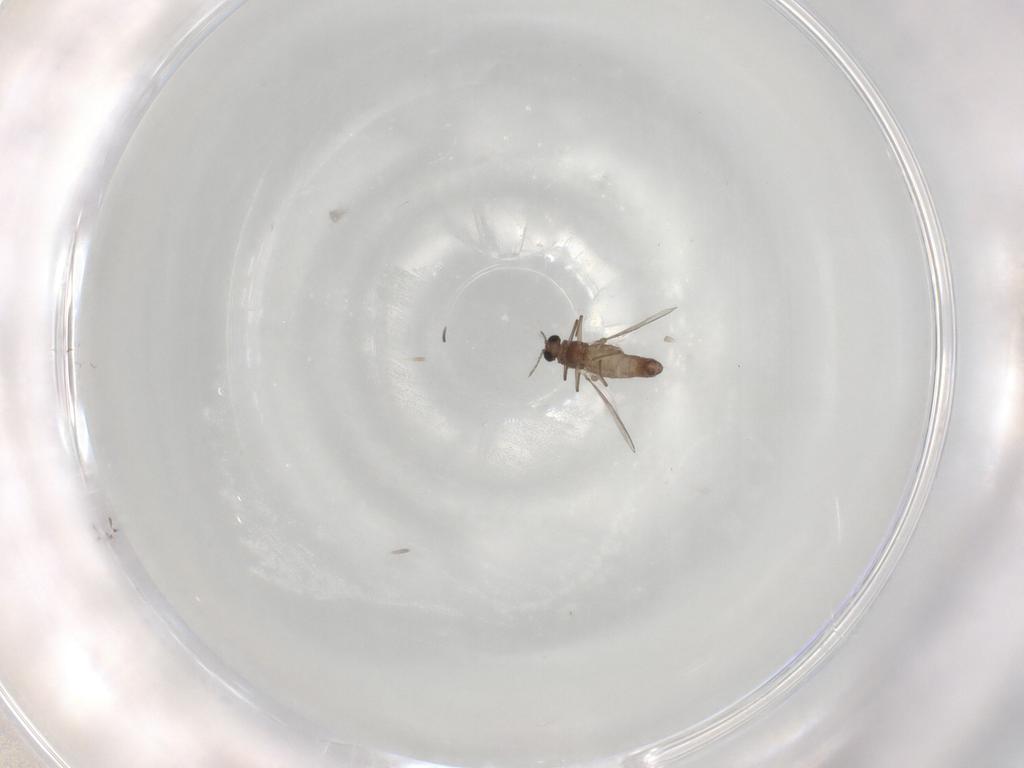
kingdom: Animalia
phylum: Arthropoda
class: Insecta
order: Diptera
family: Chironomidae
